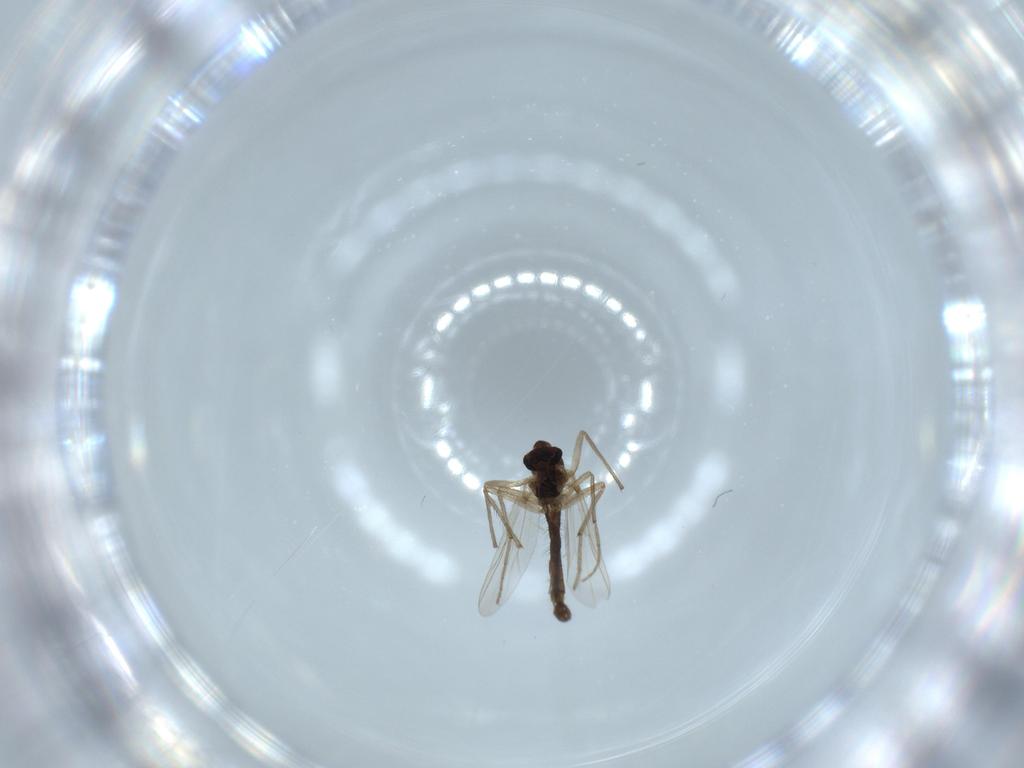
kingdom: Animalia
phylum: Arthropoda
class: Insecta
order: Diptera
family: Chironomidae
